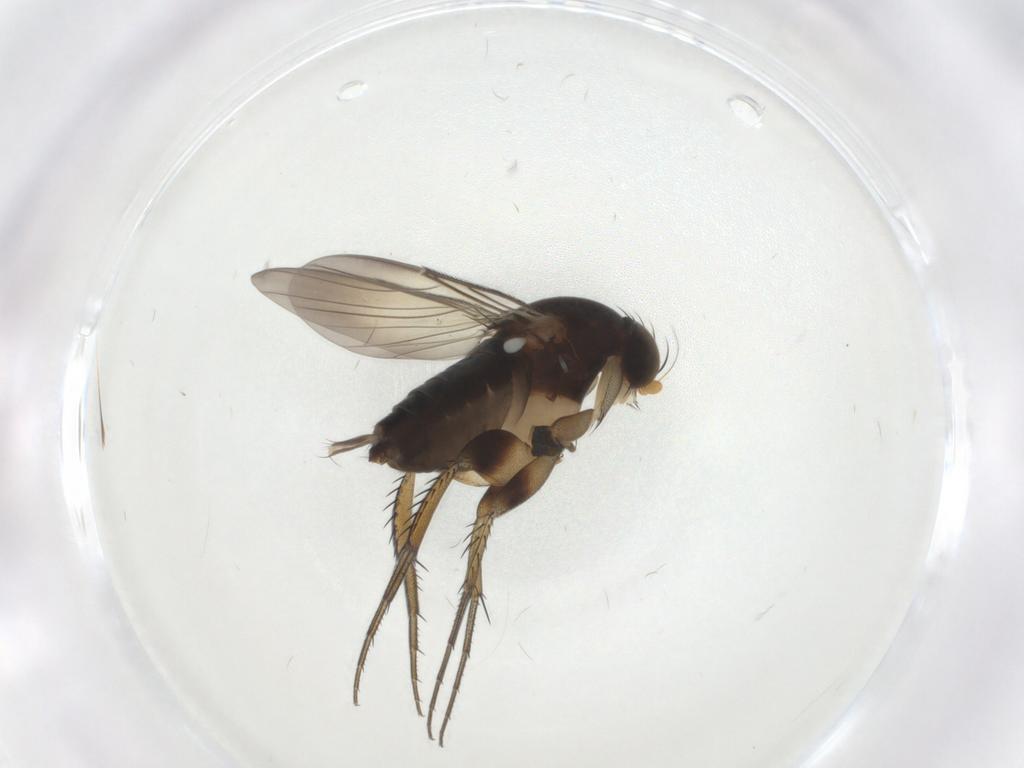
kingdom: Animalia
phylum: Arthropoda
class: Insecta
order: Diptera
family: Phoridae
